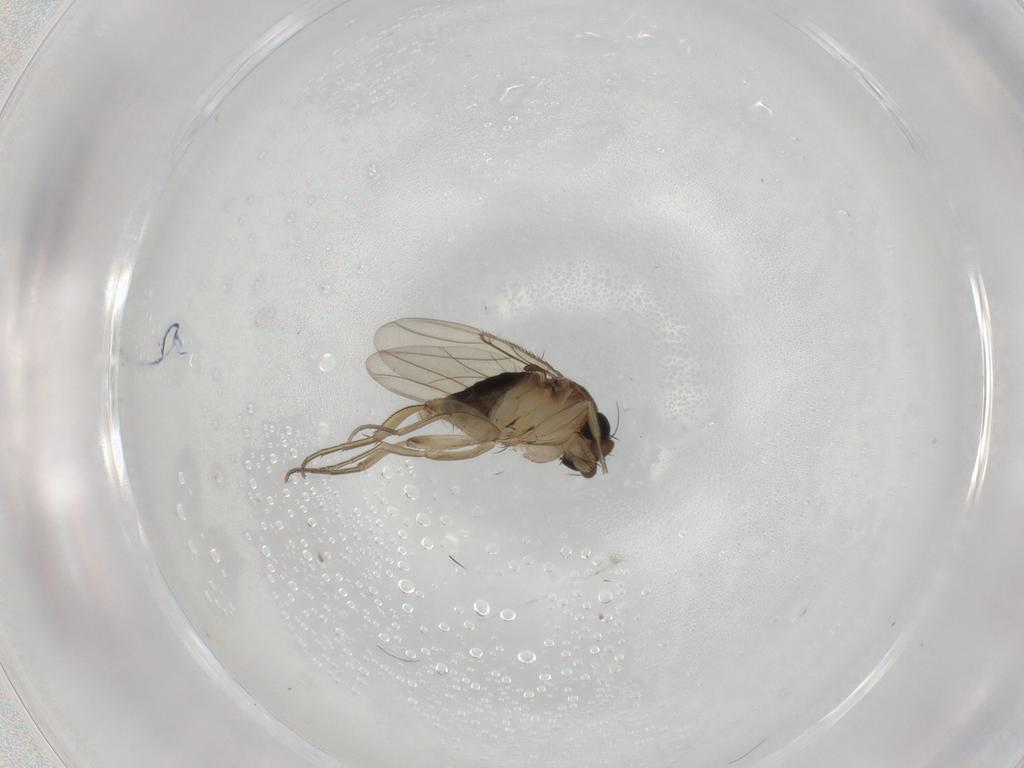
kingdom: Animalia
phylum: Arthropoda
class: Insecta
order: Diptera
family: Phoridae
